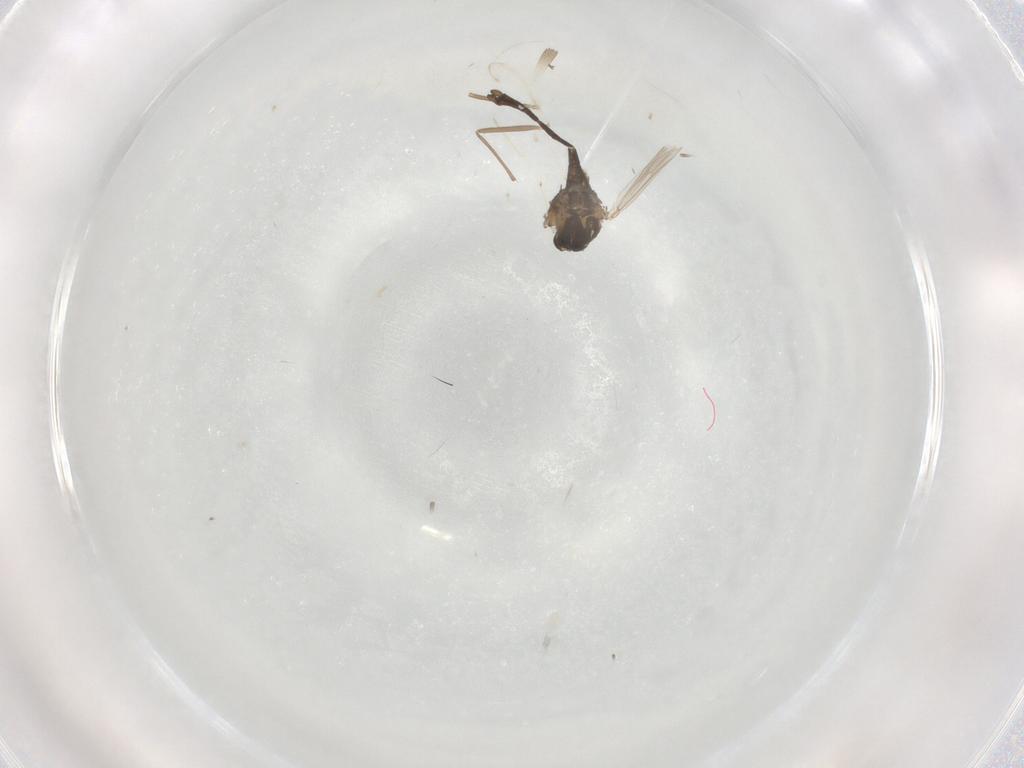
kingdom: Animalia
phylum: Arthropoda
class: Insecta
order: Diptera
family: Chironomidae
